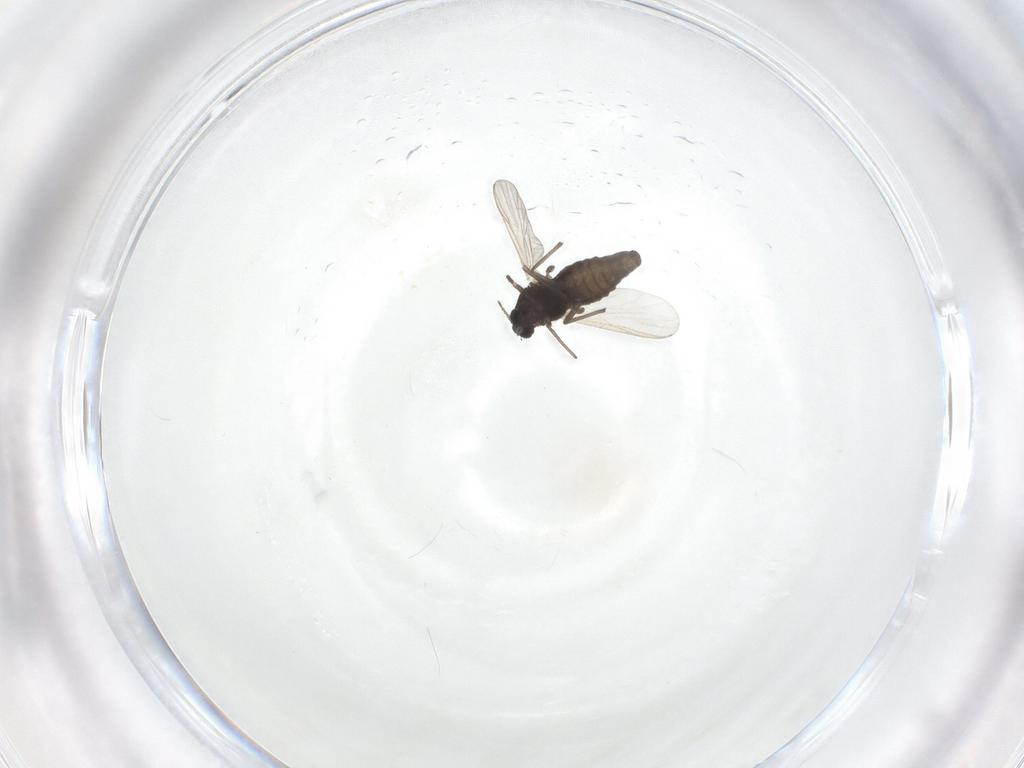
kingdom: Animalia
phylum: Arthropoda
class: Insecta
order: Diptera
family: Chironomidae
